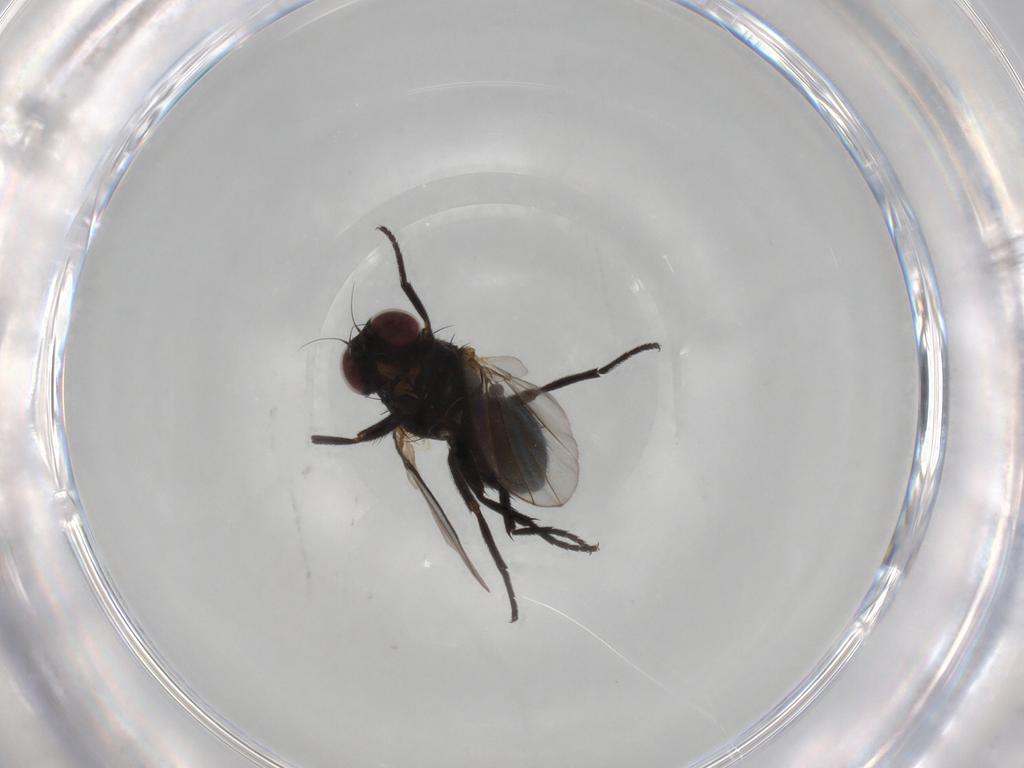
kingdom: Animalia
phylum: Arthropoda
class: Insecta
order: Diptera
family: Agromyzidae
